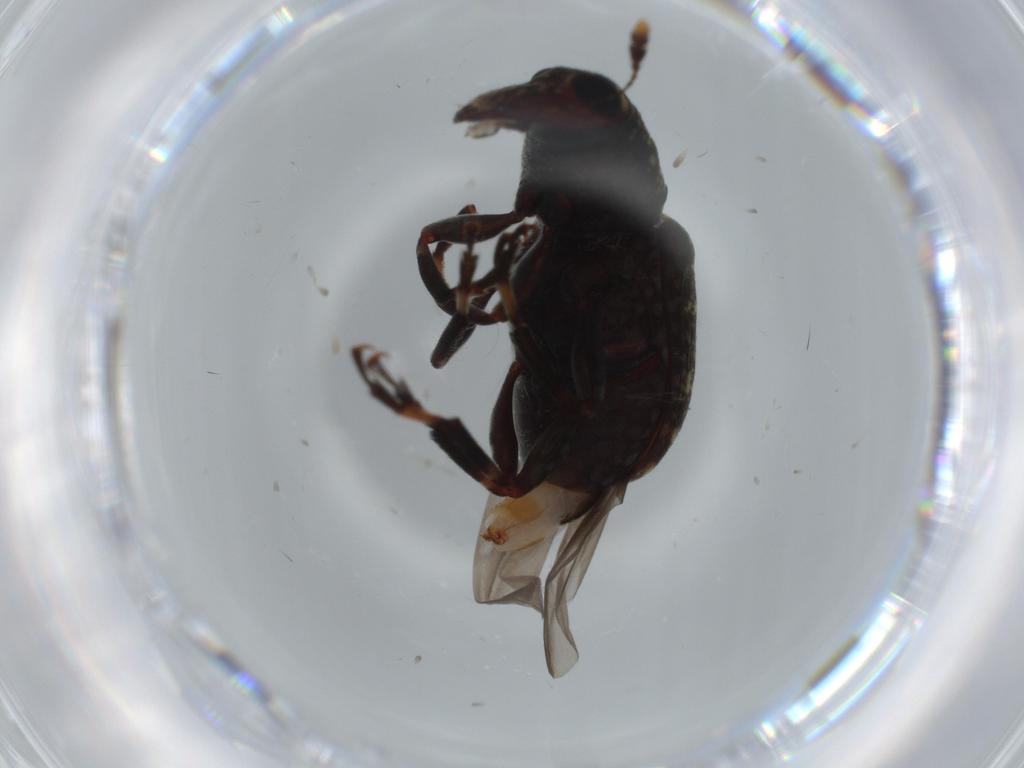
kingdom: Animalia
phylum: Arthropoda
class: Insecta
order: Coleoptera
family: Anthribidae
